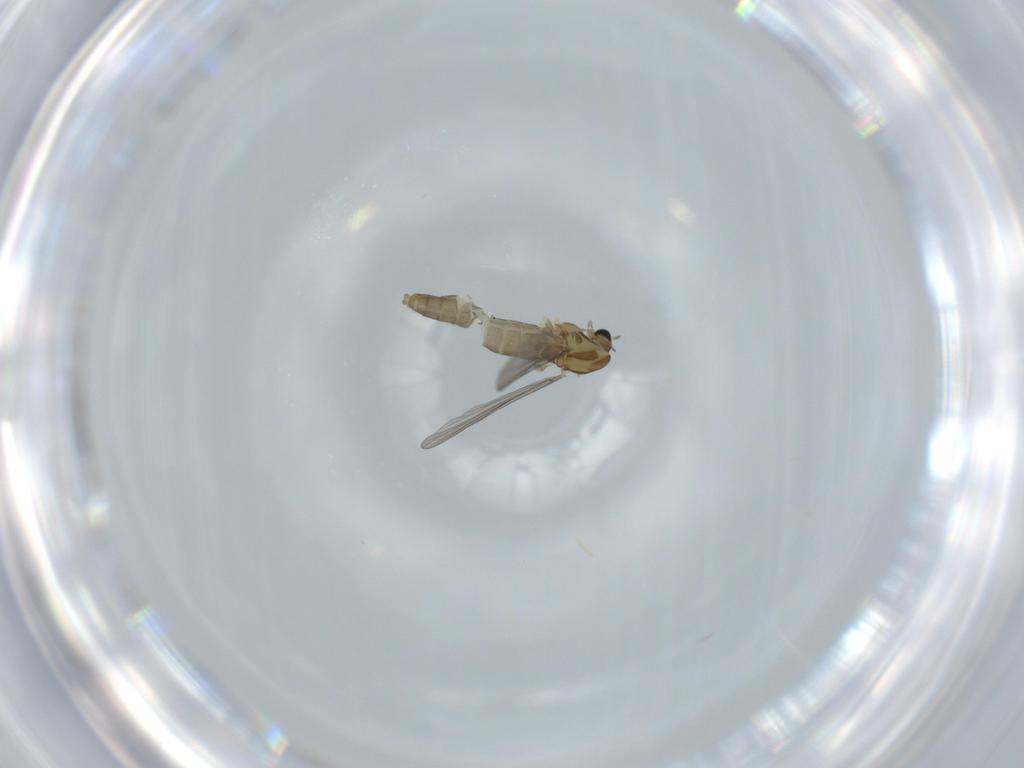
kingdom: Animalia
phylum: Arthropoda
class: Insecta
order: Diptera
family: Chironomidae
